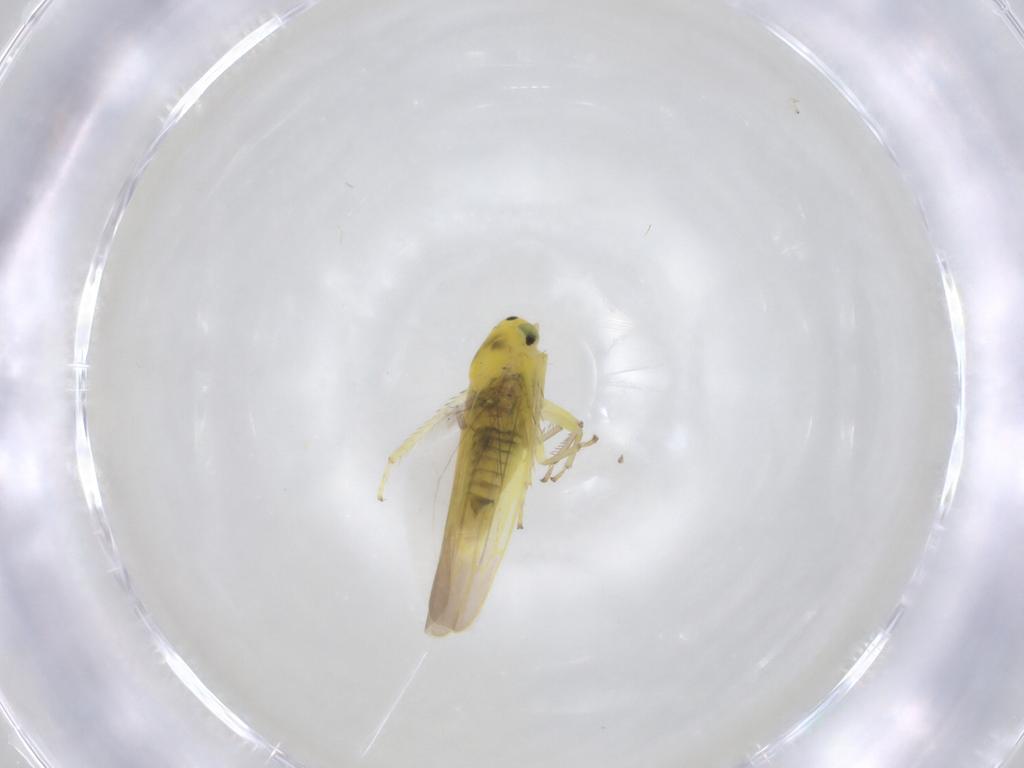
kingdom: Animalia
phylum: Arthropoda
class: Insecta
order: Hemiptera
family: Cicadellidae
